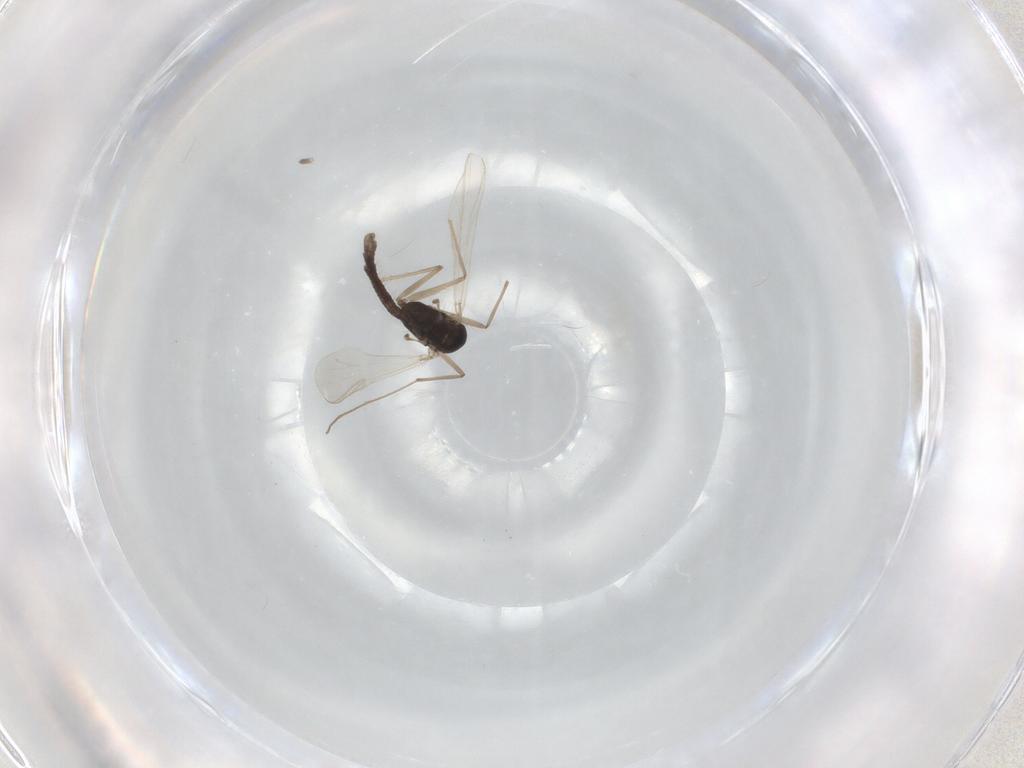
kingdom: Animalia
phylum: Arthropoda
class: Insecta
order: Diptera
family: Chironomidae
